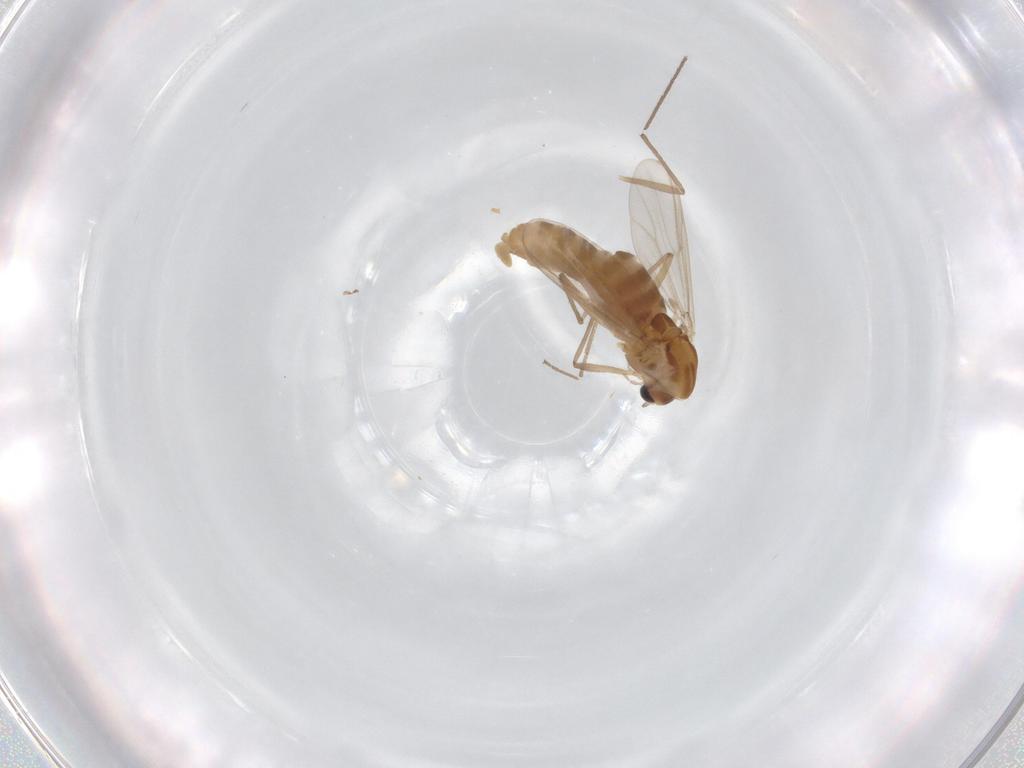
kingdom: Animalia
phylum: Arthropoda
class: Insecta
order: Diptera
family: Chironomidae
